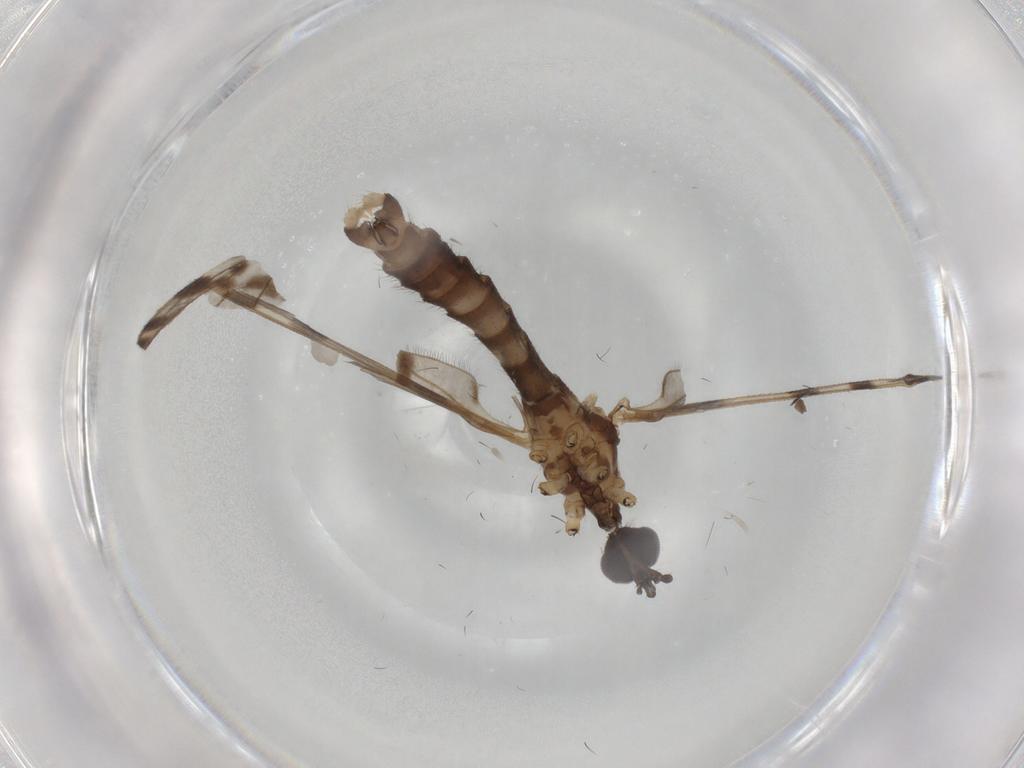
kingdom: Animalia
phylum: Arthropoda
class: Insecta
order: Diptera
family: Limoniidae
